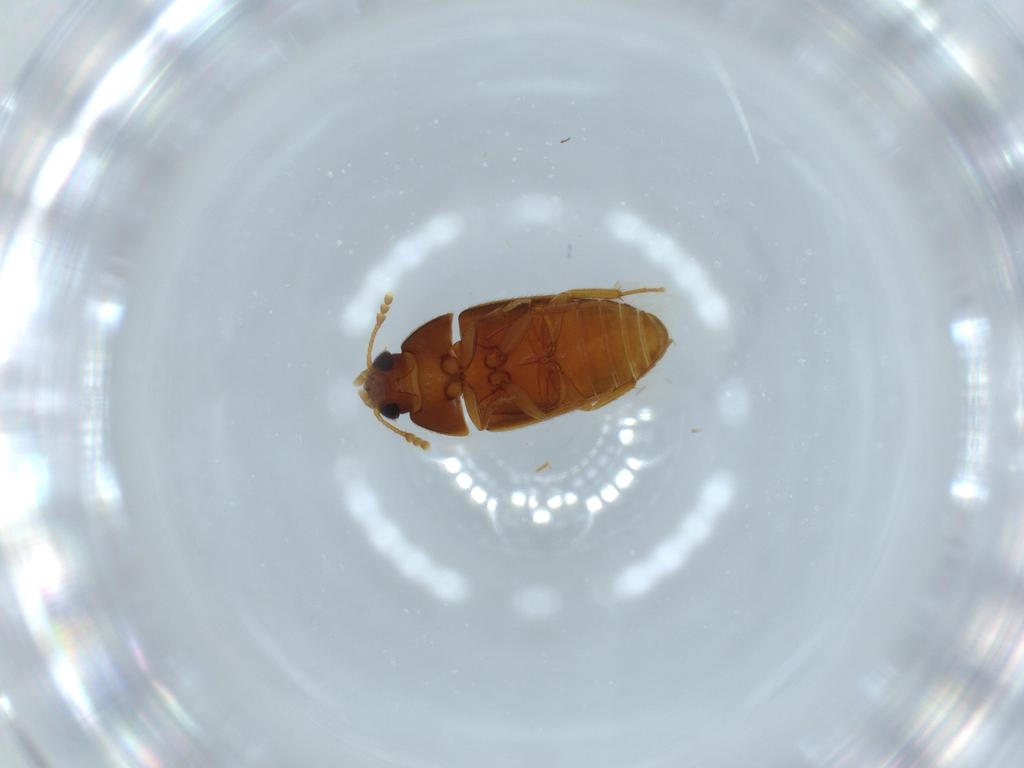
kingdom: Animalia
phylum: Arthropoda
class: Insecta
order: Coleoptera
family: Mycetophagidae
